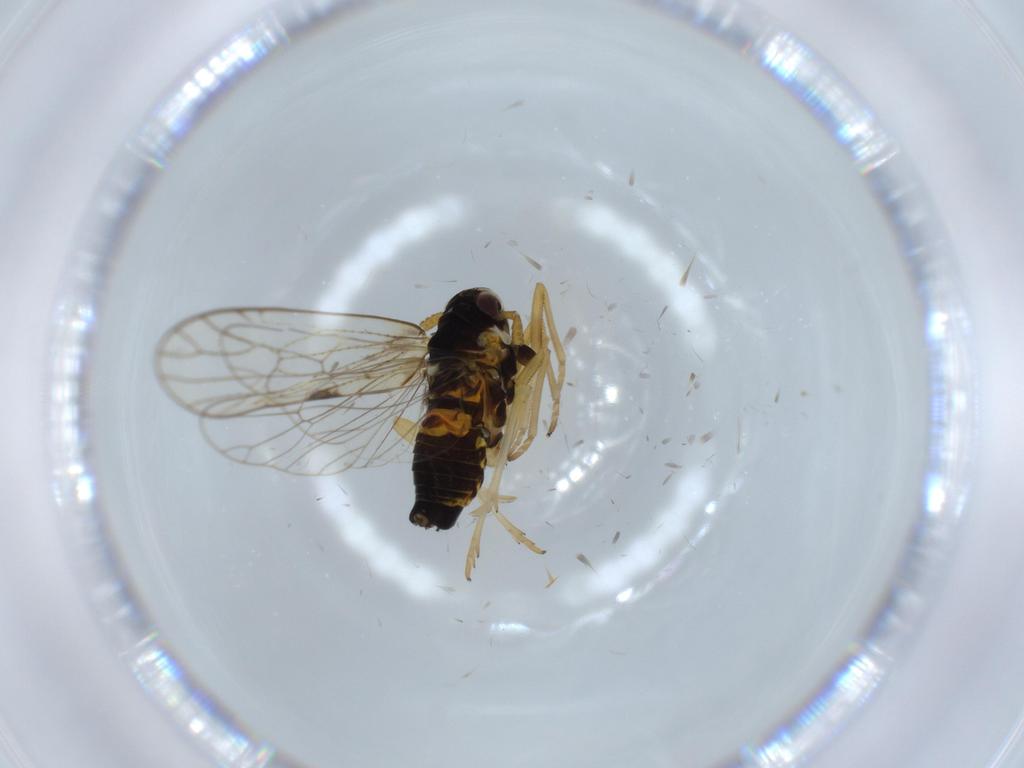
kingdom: Animalia
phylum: Arthropoda
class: Insecta
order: Hemiptera
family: Cicadellidae
